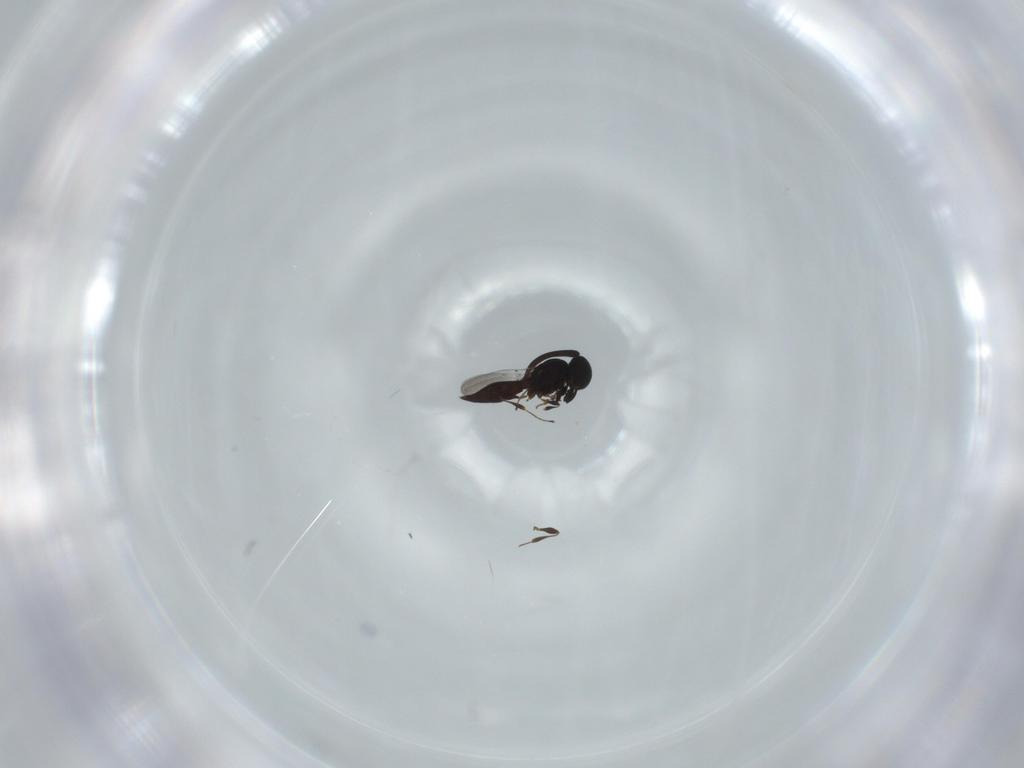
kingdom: Animalia
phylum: Arthropoda
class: Insecta
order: Hymenoptera
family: Platygastridae
